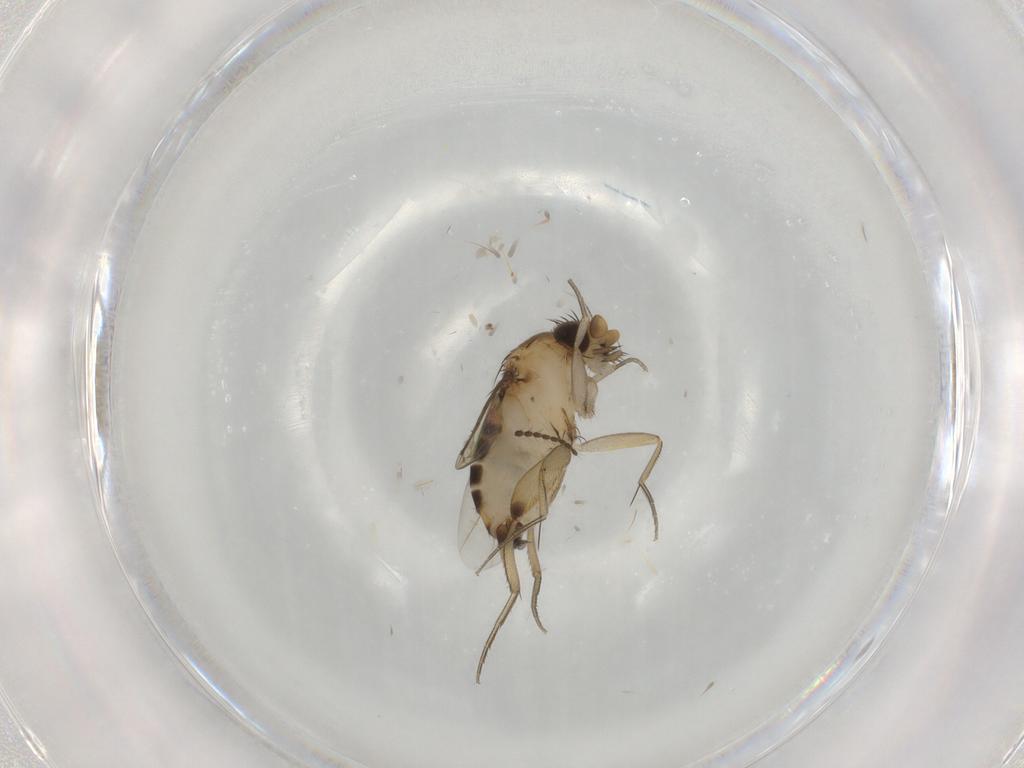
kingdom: Animalia
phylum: Arthropoda
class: Insecta
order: Diptera
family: Phoridae
